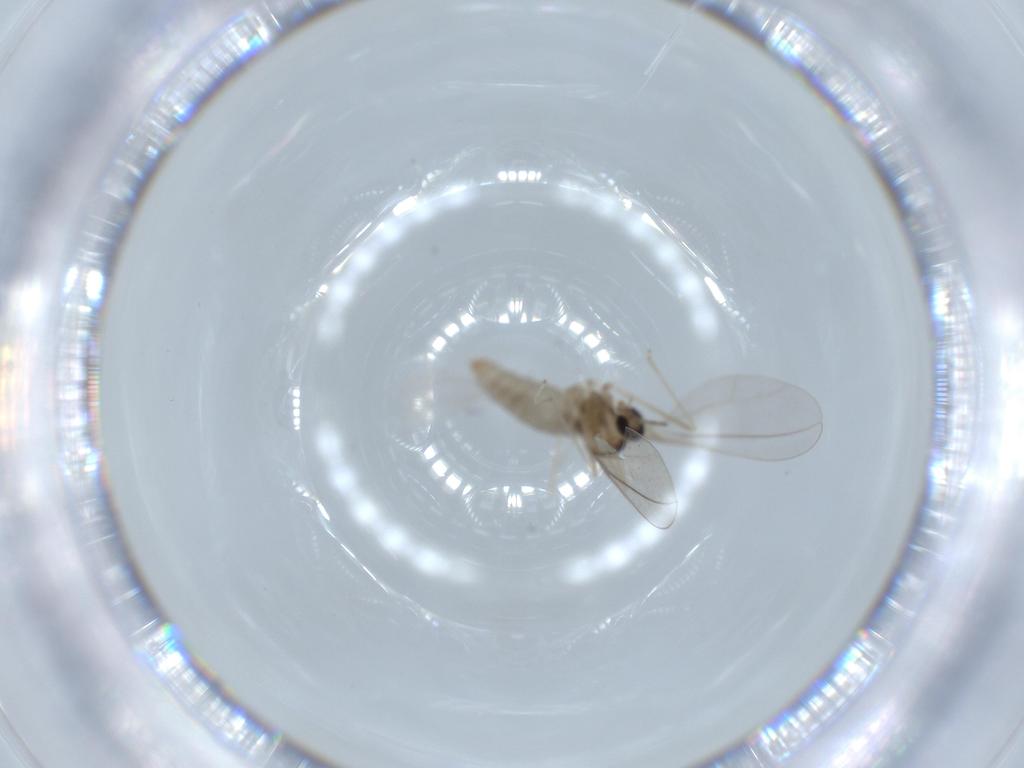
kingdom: Animalia
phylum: Arthropoda
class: Insecta
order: Diptera
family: Cecidomyiidae
